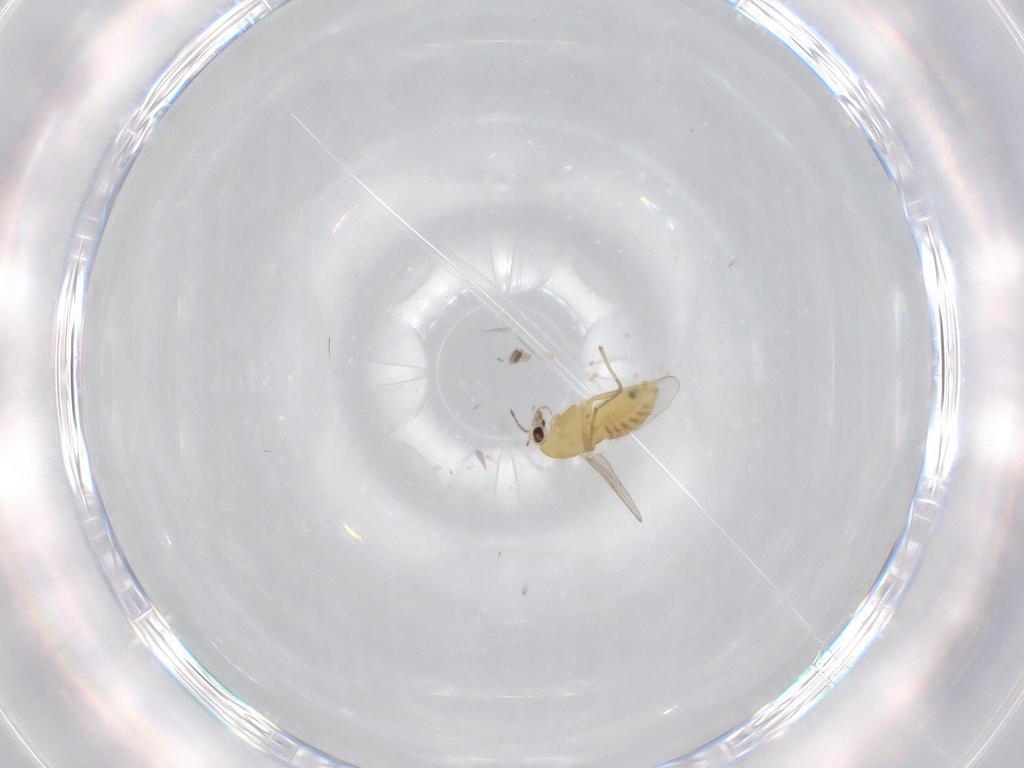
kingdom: Animalia
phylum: Arthropoda
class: Insecta
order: Diptera
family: Chironomidae
